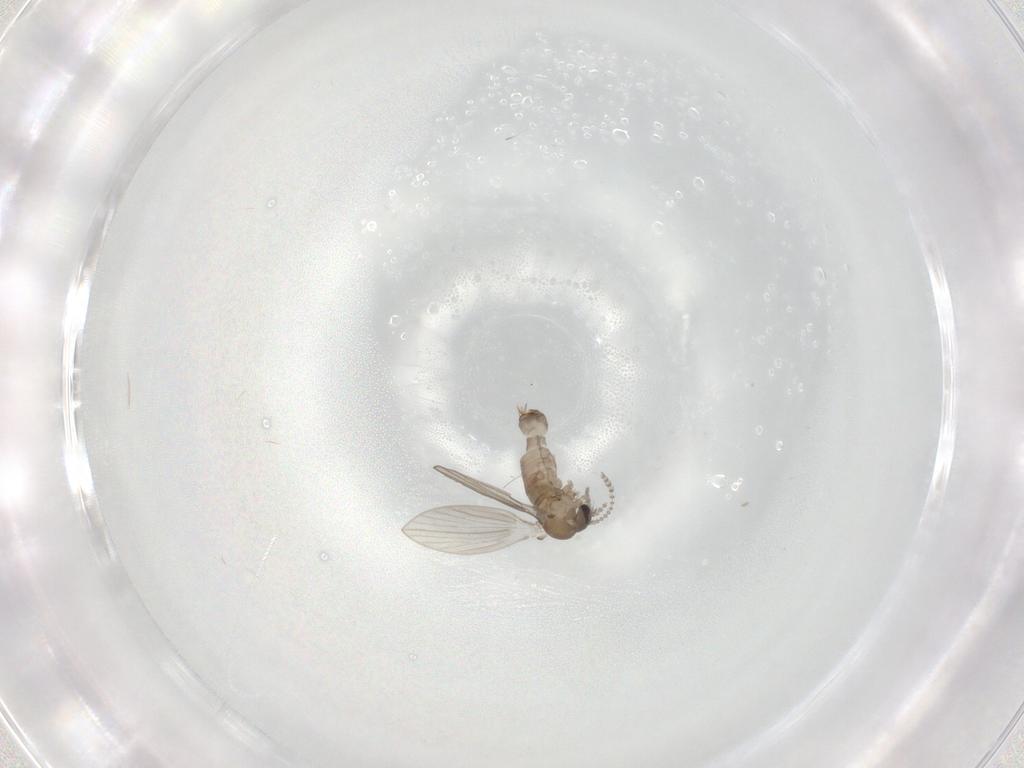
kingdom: Animalia
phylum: Arthropoda
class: Insecta
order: Diptera
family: Psychodidae
